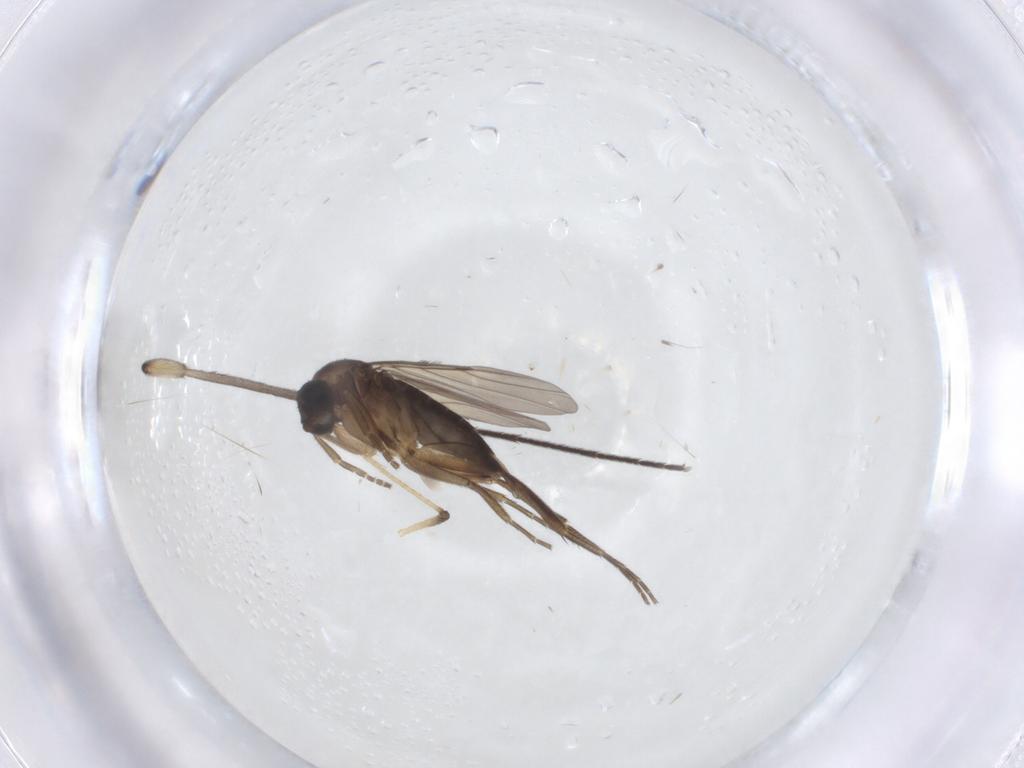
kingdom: Animalia
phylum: Arthropoda
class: Insecta
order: Diptera
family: Phoridae
